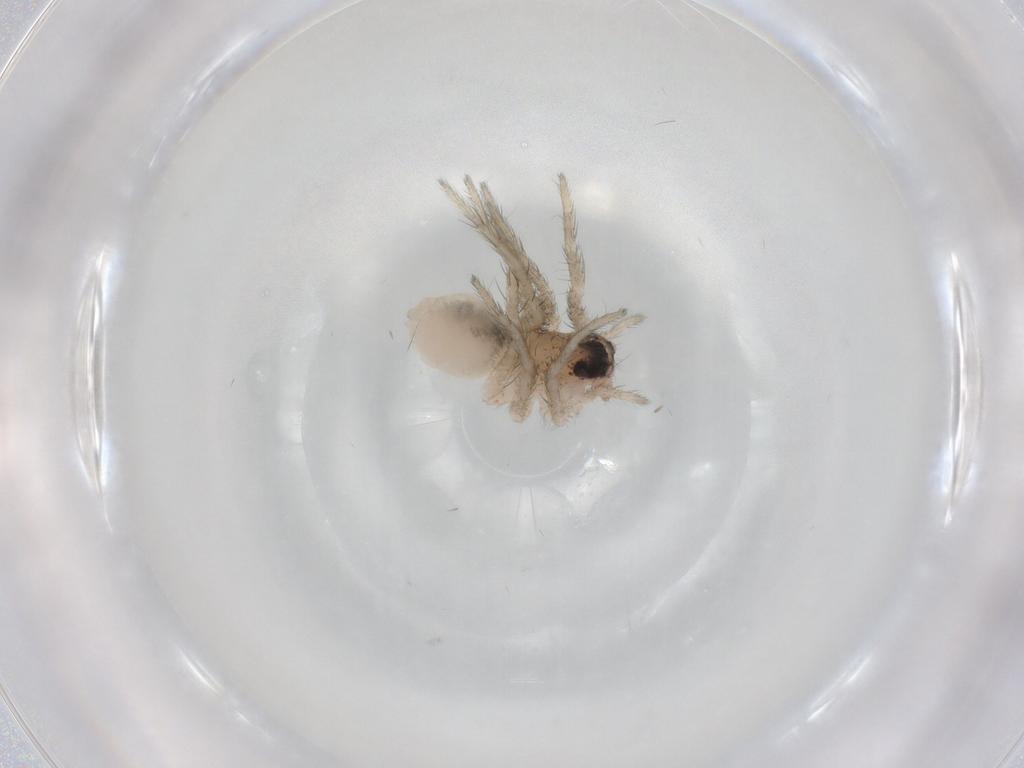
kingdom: Animalia
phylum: Arthropoda
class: Arachnida
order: Araneae
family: Lycosidae
